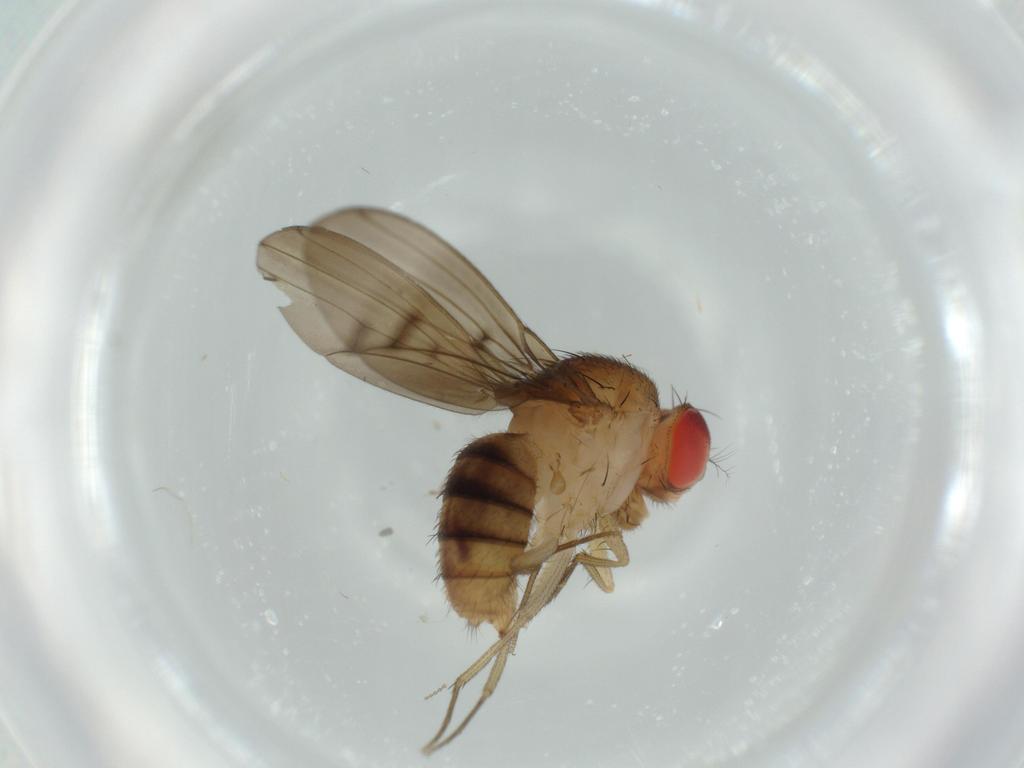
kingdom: Animalia
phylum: Arthropoda
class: Insecta
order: Diptera
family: Drosophilidae
